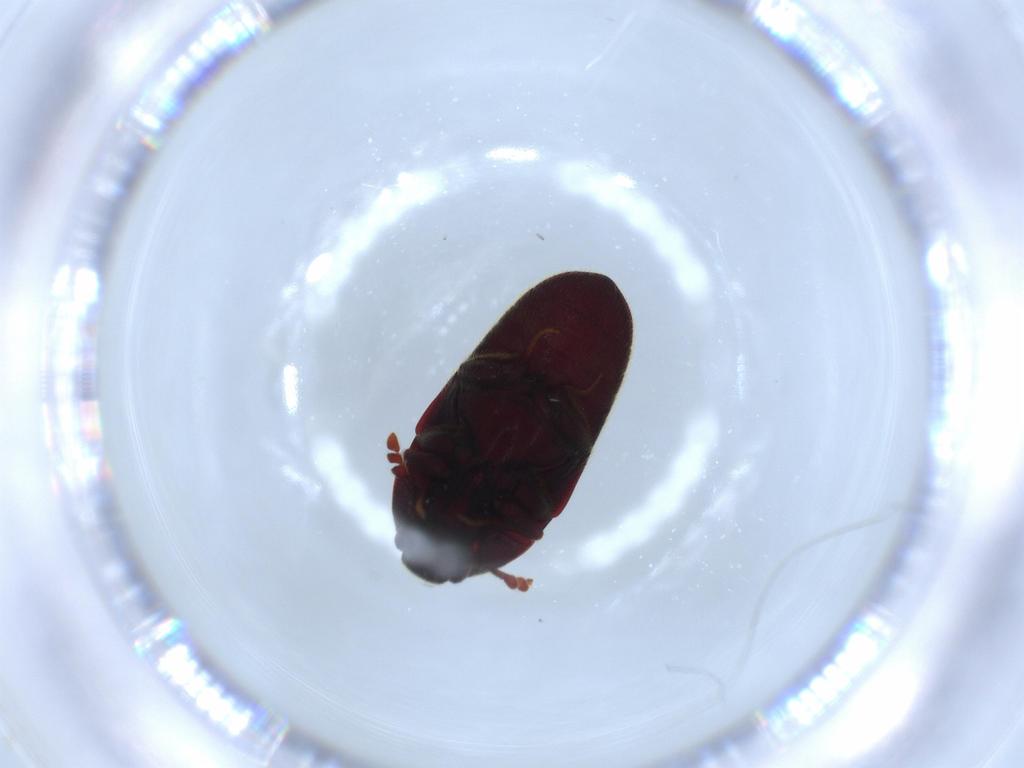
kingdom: Animalia
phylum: Arthropoda
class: Insecta
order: Coleoptera
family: Throscidae
